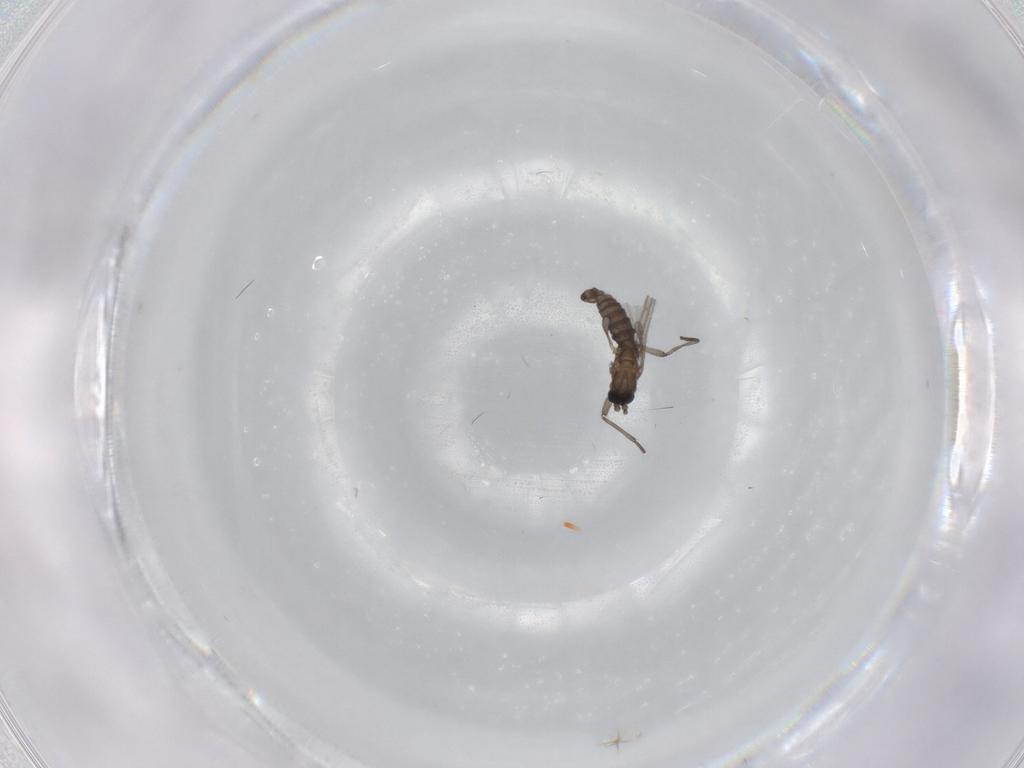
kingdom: Animalia
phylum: Arthropoda
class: Insecta
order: Diptera
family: Sciaridae
